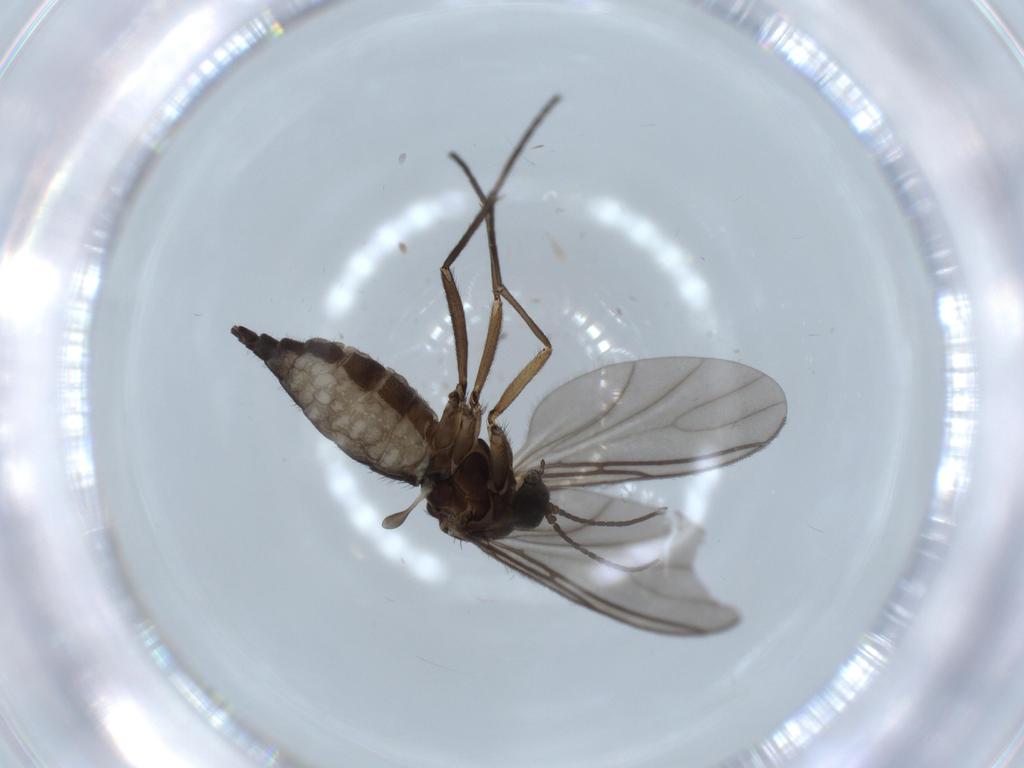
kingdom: Animalia
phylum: Arthropoda
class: Insecta
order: Diptera
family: Sciaridae
